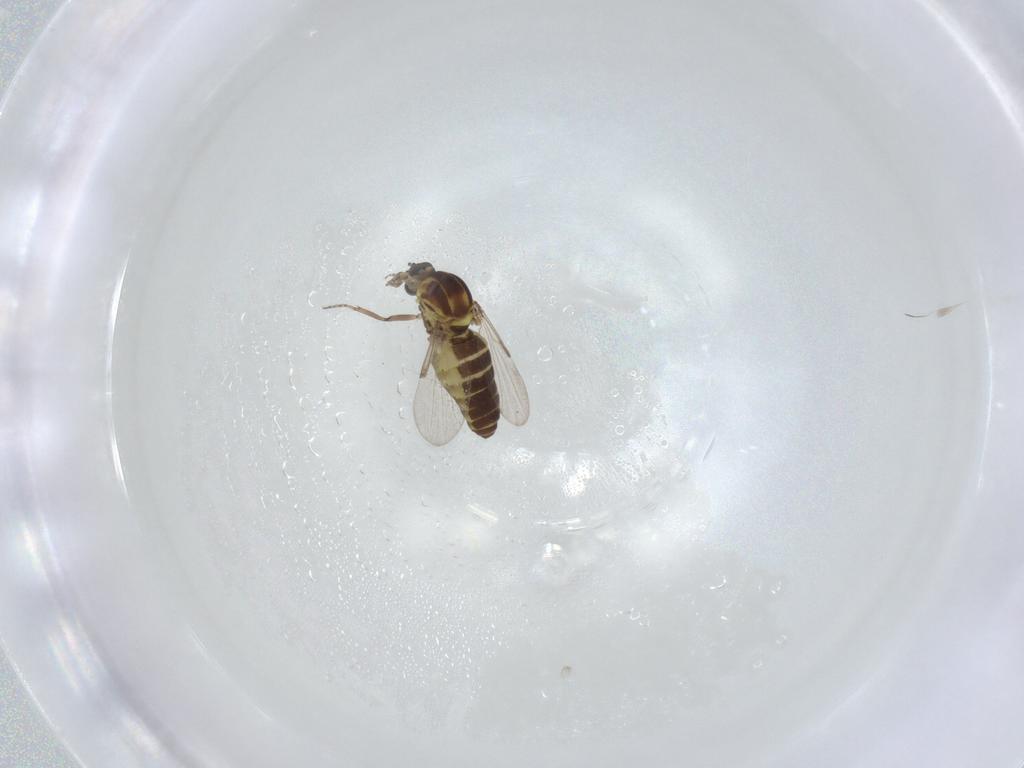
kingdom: Animalia
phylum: Arthropoda
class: Insecta
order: Diptera
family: Ceratopogonidae
